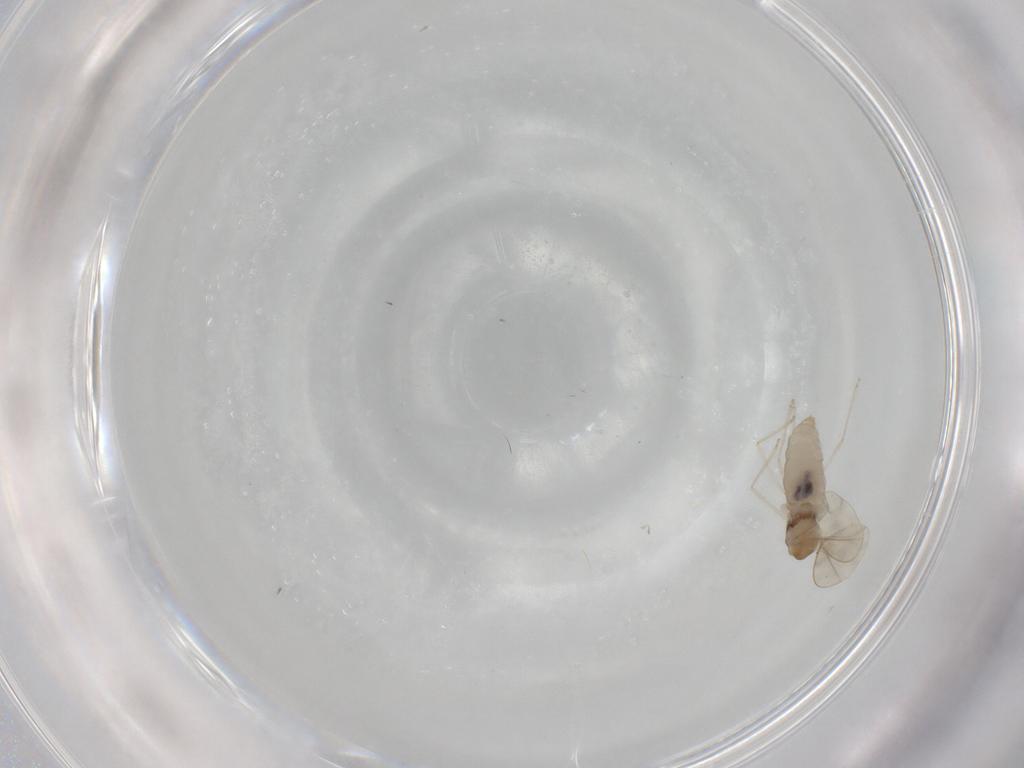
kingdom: Animalia
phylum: Arthropoda
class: Insecta
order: Diptera
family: Cecidomyiidae
